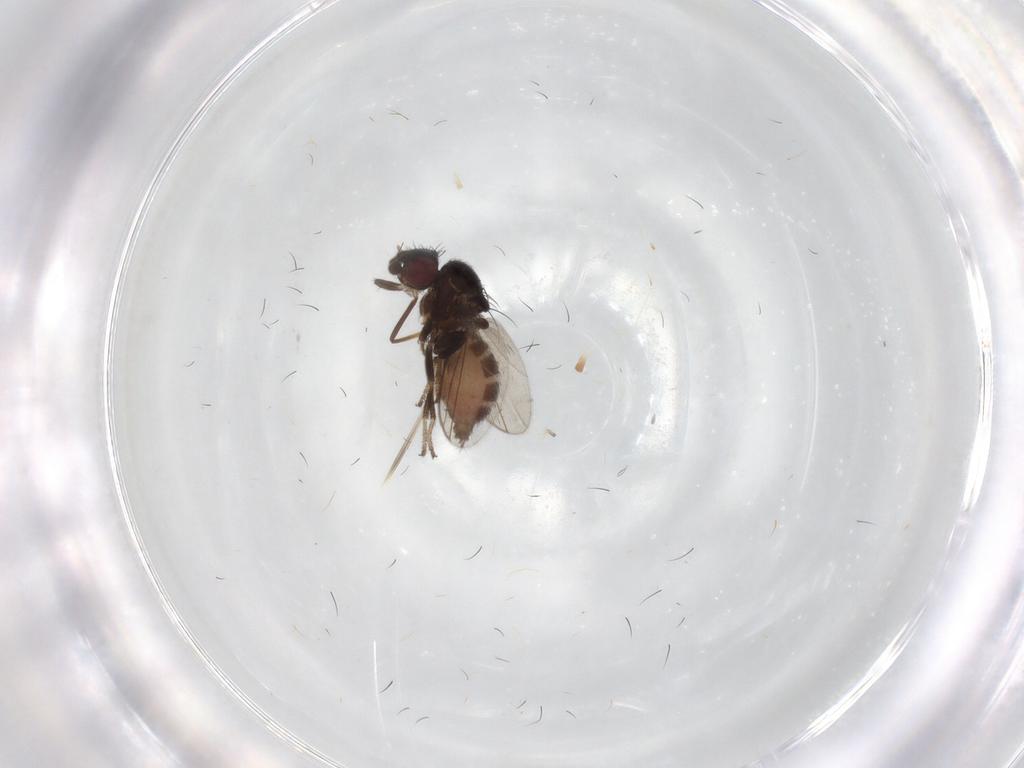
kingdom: Animalia
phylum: Arthropoda
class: Insecta
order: Diptera
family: Milichiidae
